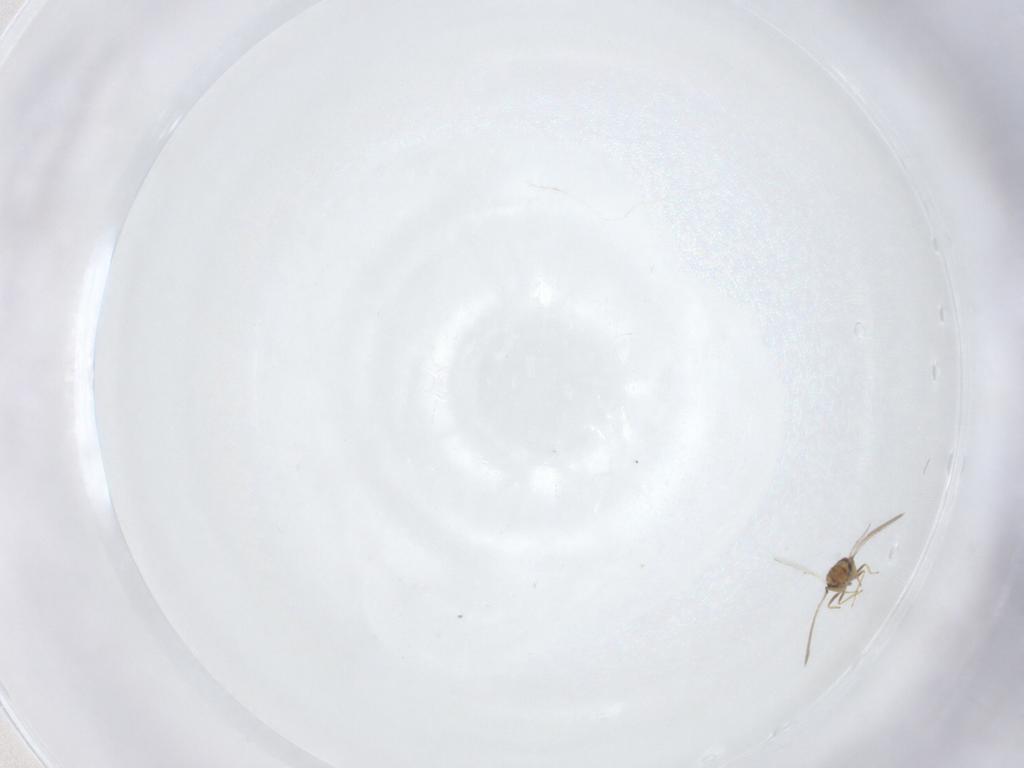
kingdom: Animalia
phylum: Arthropoda
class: Insecta
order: Hymenoptera
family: Eulophidae
